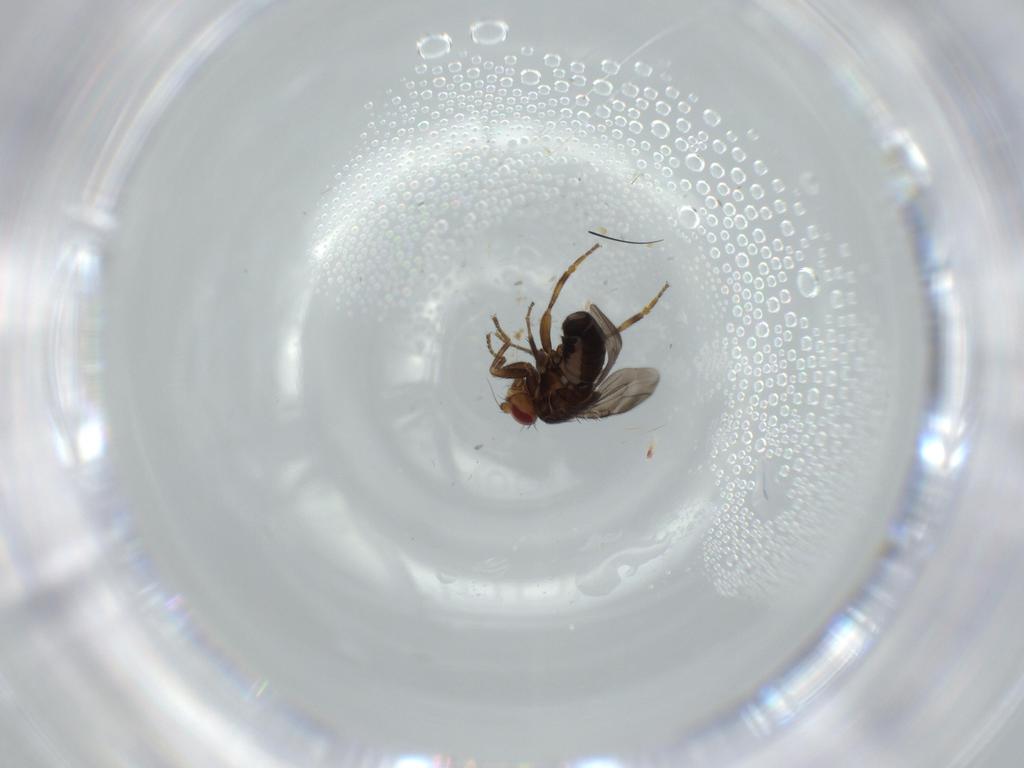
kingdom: Animalia
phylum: Arthropoda
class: Insecta
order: Diptera
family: Sphaeroceridae
